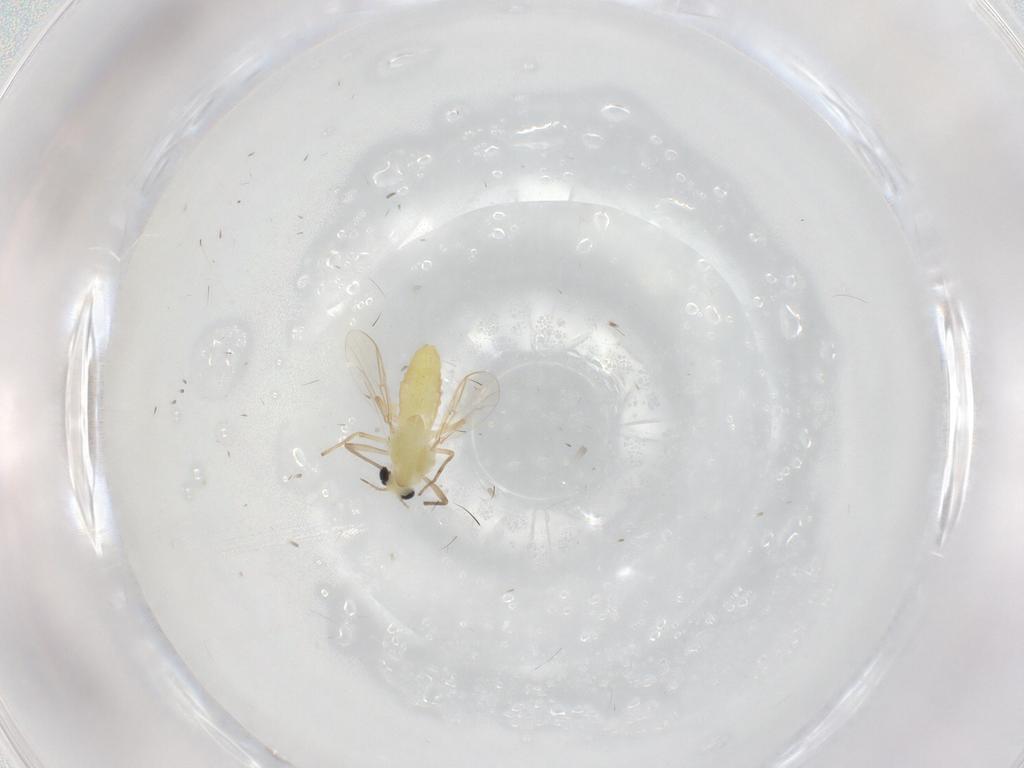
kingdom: Animalia
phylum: Arthropoda
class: Insecta
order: Diptera
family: Chironomidae
